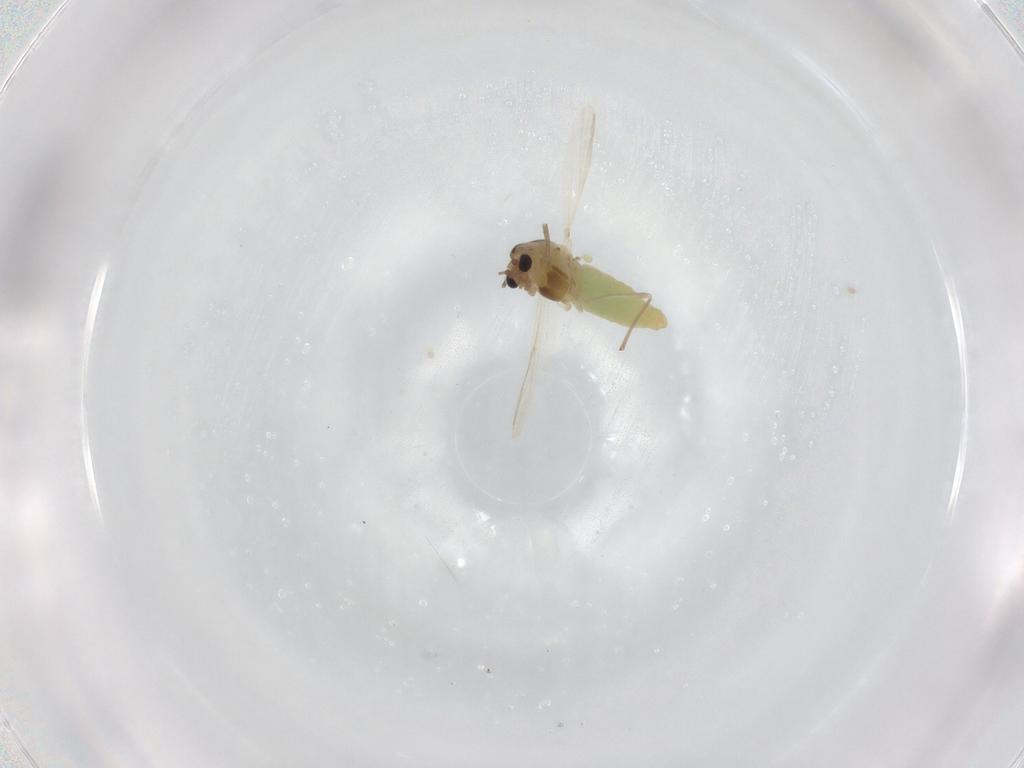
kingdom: Animalia
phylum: Arthropoda
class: Insecta
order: Diptera
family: Chironomidae
